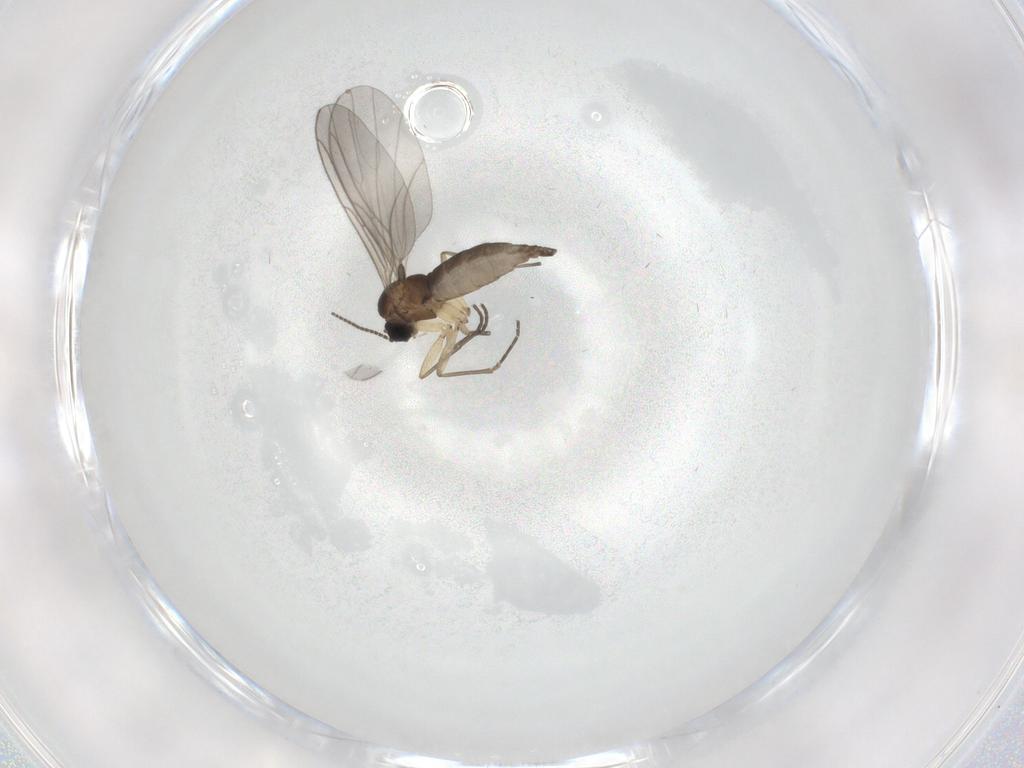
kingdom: Animalia
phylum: Arthropoda
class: Insecta
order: Diptera
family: Sciaridae
